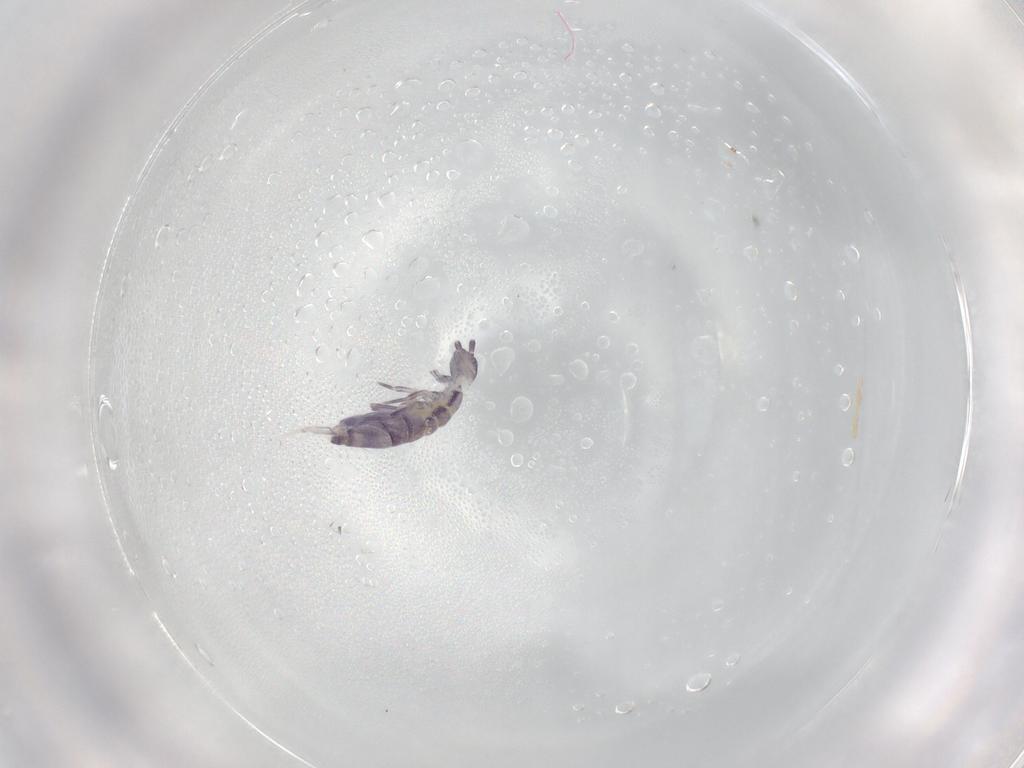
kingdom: Animalia
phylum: Arthropoda
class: Collembola
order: Entomobryomorpha
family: Entomobryidae
